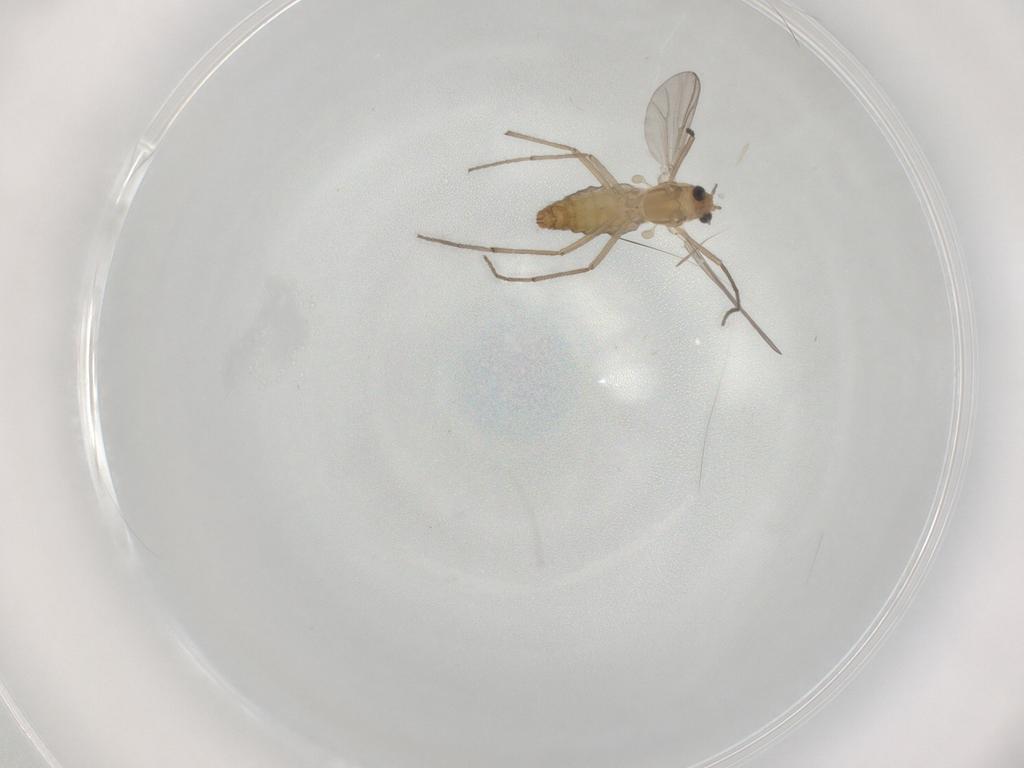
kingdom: Animalia
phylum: Arthropoda
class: Insecta
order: Diptera
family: Chironomidae
